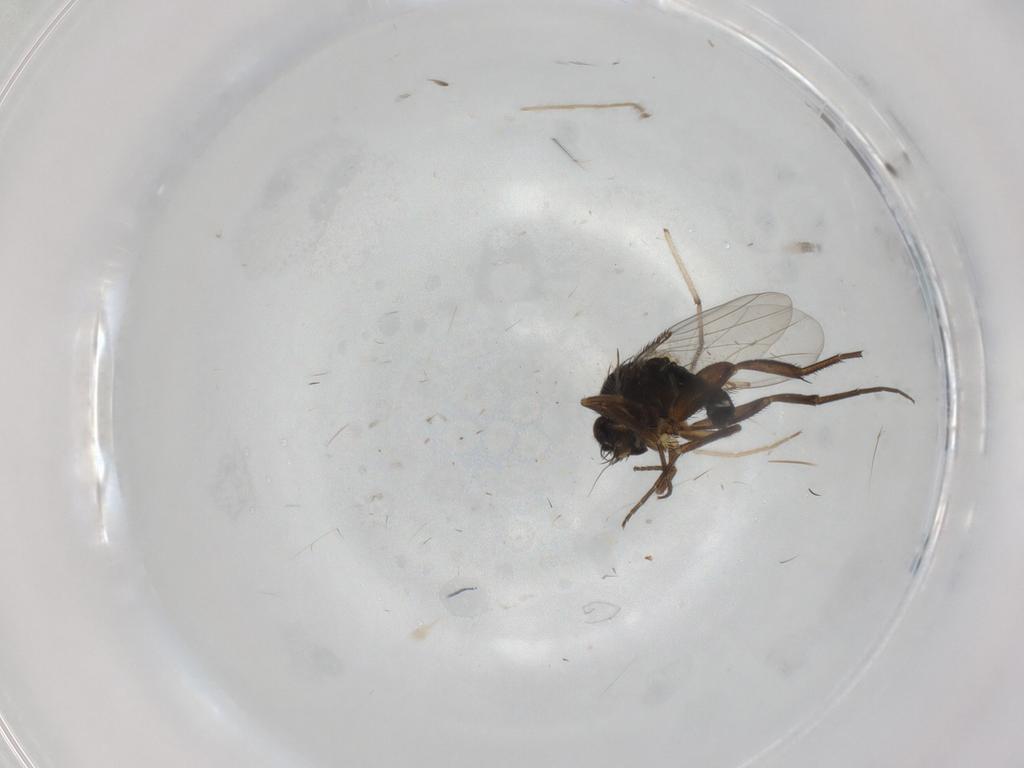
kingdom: Animalia
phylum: Arthropoda
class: Insecta
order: Diptera
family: Phoridae
